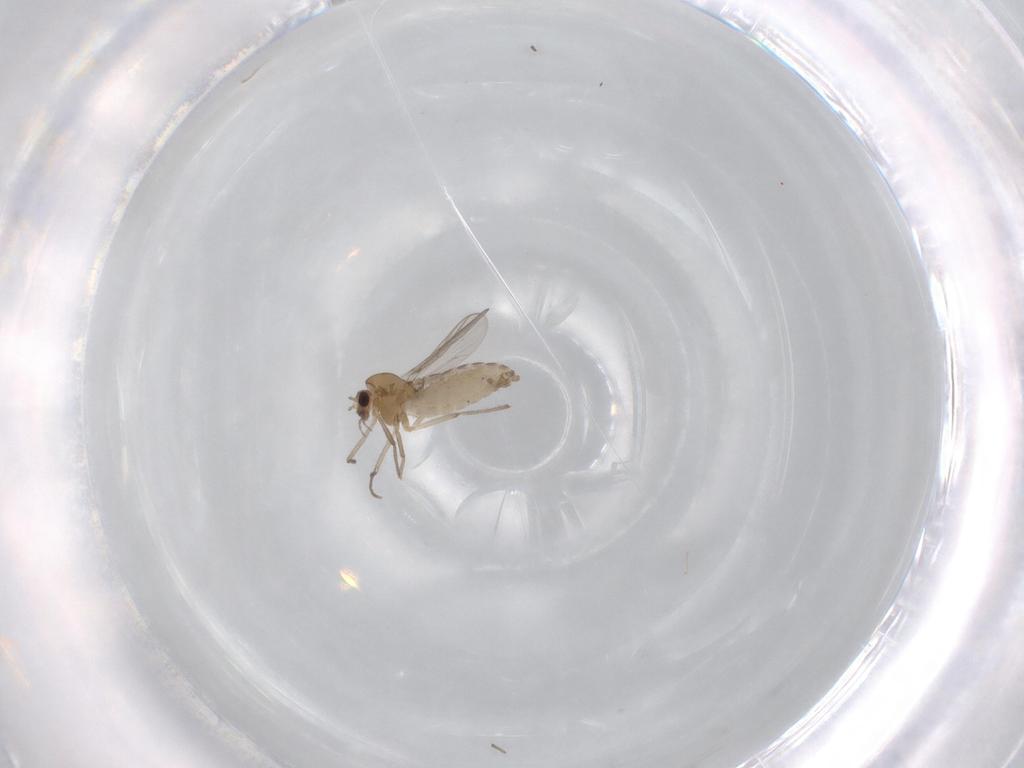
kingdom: Animalia
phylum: Arthropoda
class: Insecta
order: Diptera
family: Chironomidae
